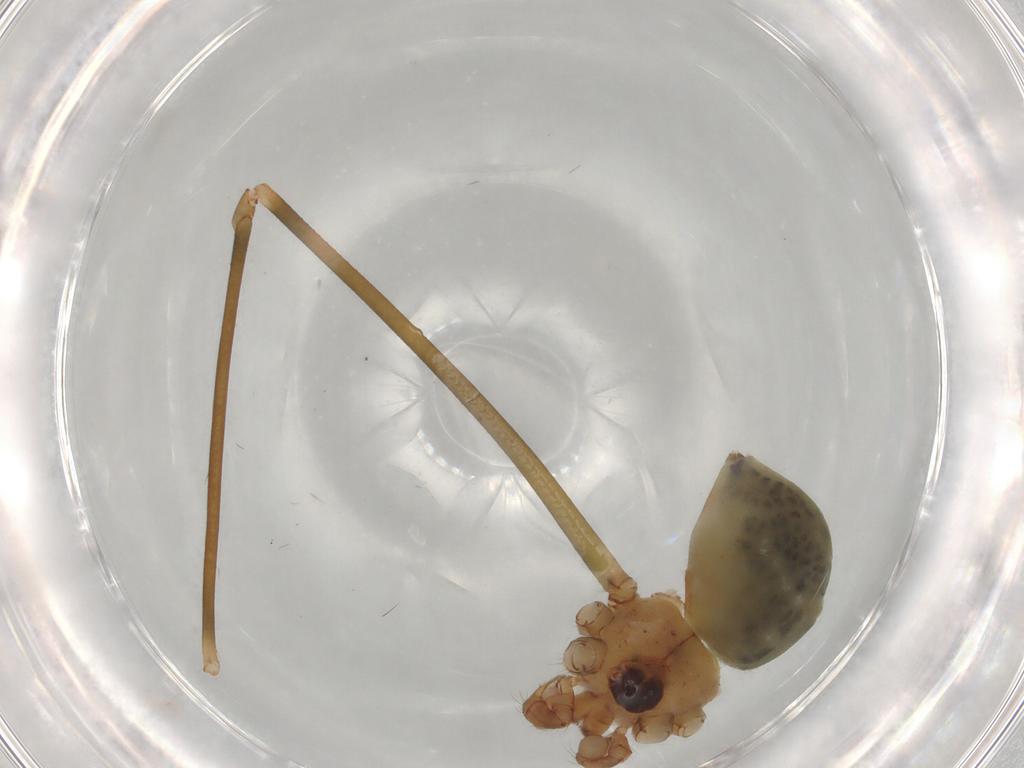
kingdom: Animalia
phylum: Arthropoda
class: Arachnida
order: Araneae
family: Pholcidae
